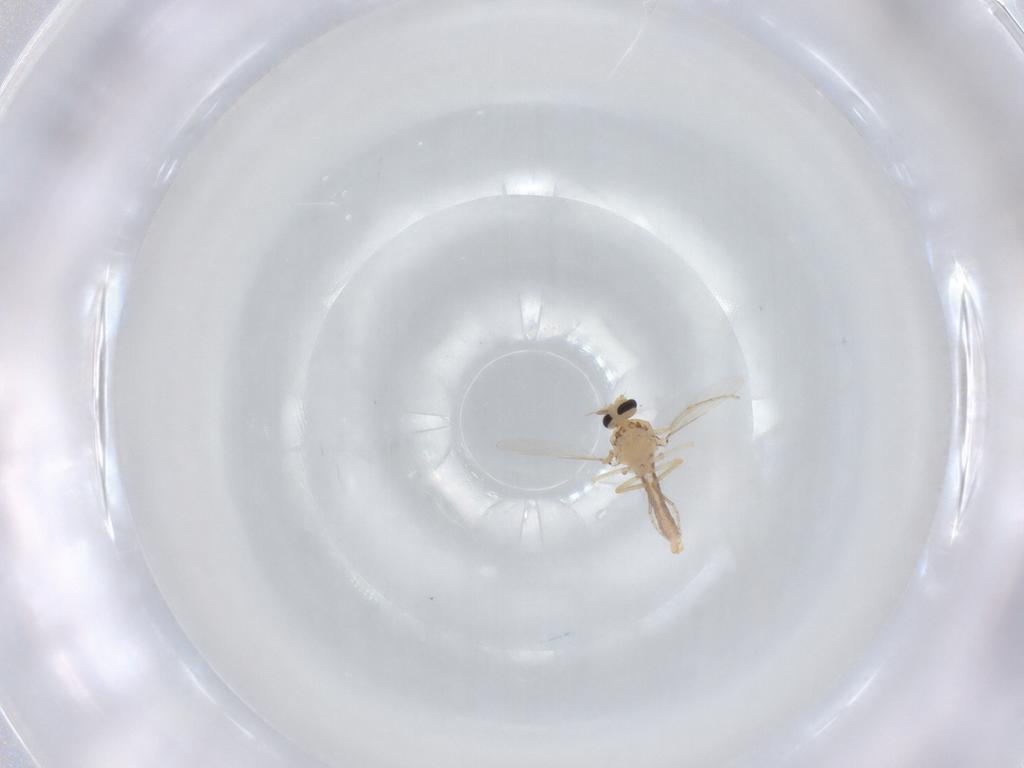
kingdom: Animalia
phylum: Arthropoda
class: Insecta
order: Diptera
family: Ceratopogonidae
